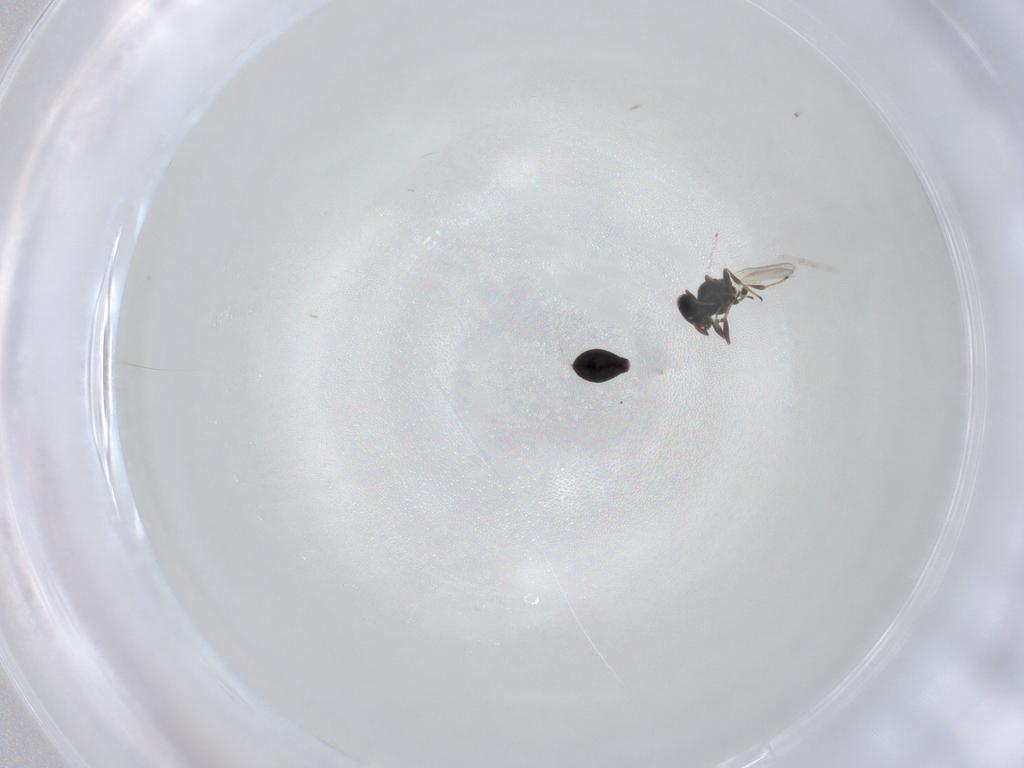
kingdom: Animalia
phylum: Arthropoda
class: Insecta
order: Hymenoptera
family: Platygastridae
